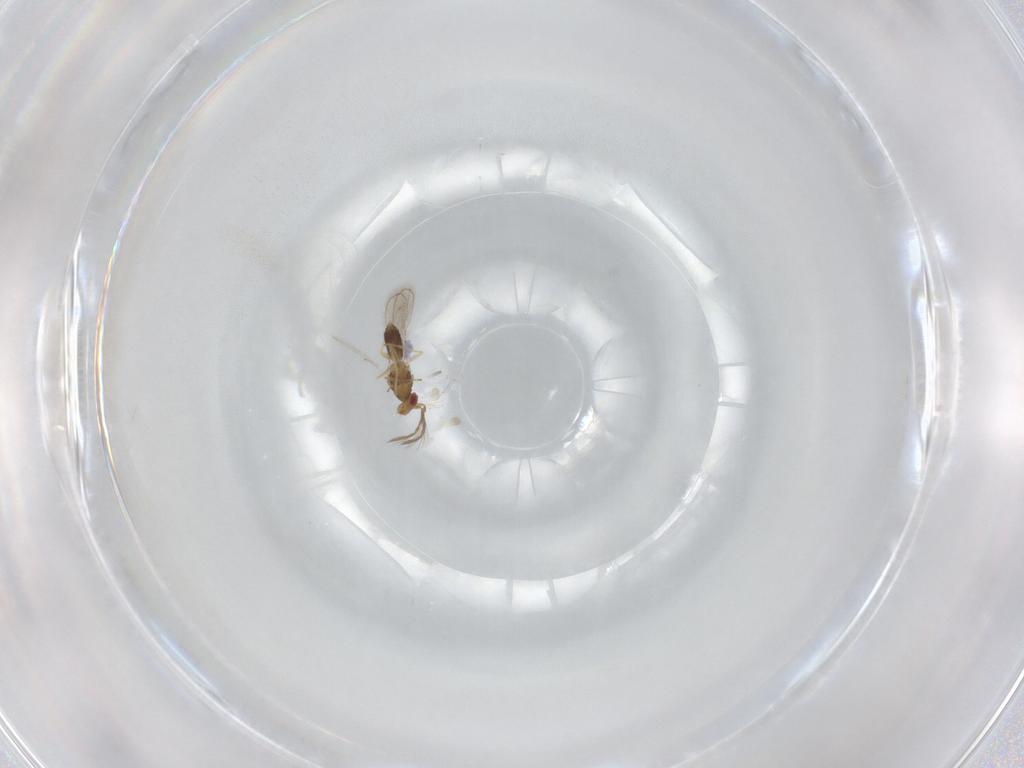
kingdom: Animalia
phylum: Arthropoda
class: Insecta
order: Hymenoptera
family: Eulophidae
